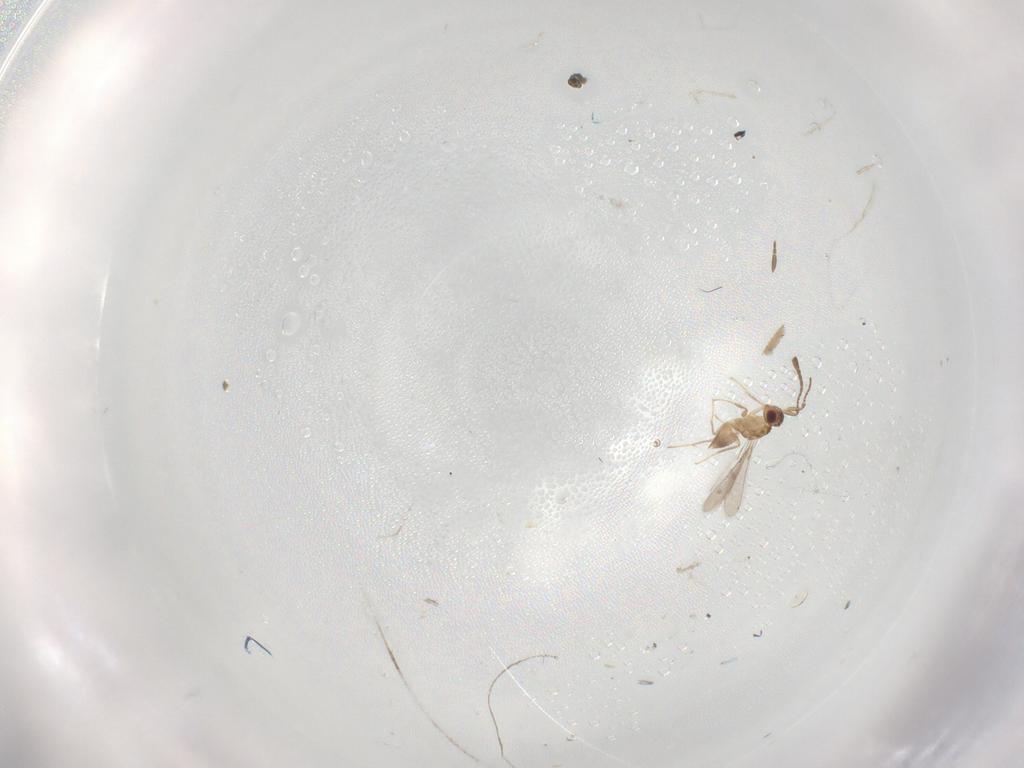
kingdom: Animalia
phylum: Arthropoda
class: Insecta
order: Hymenoptera
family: Mymaridae
